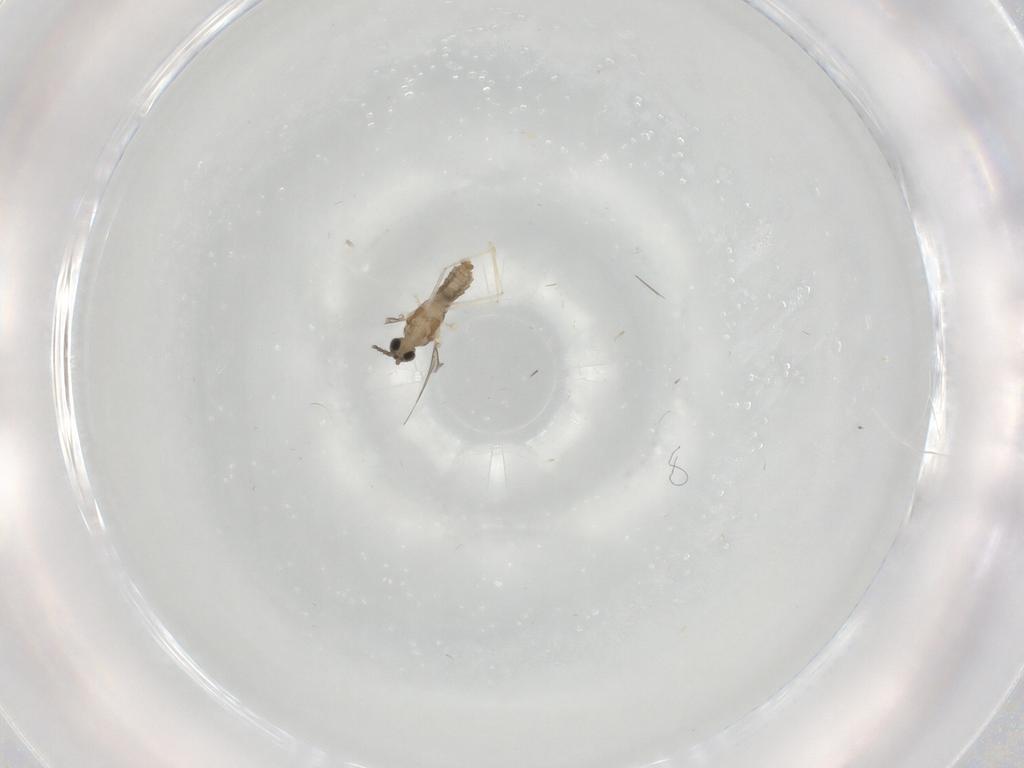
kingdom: Animalia
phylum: Arthropoda
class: Insecta
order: Diptera
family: Cecidomyiidae
